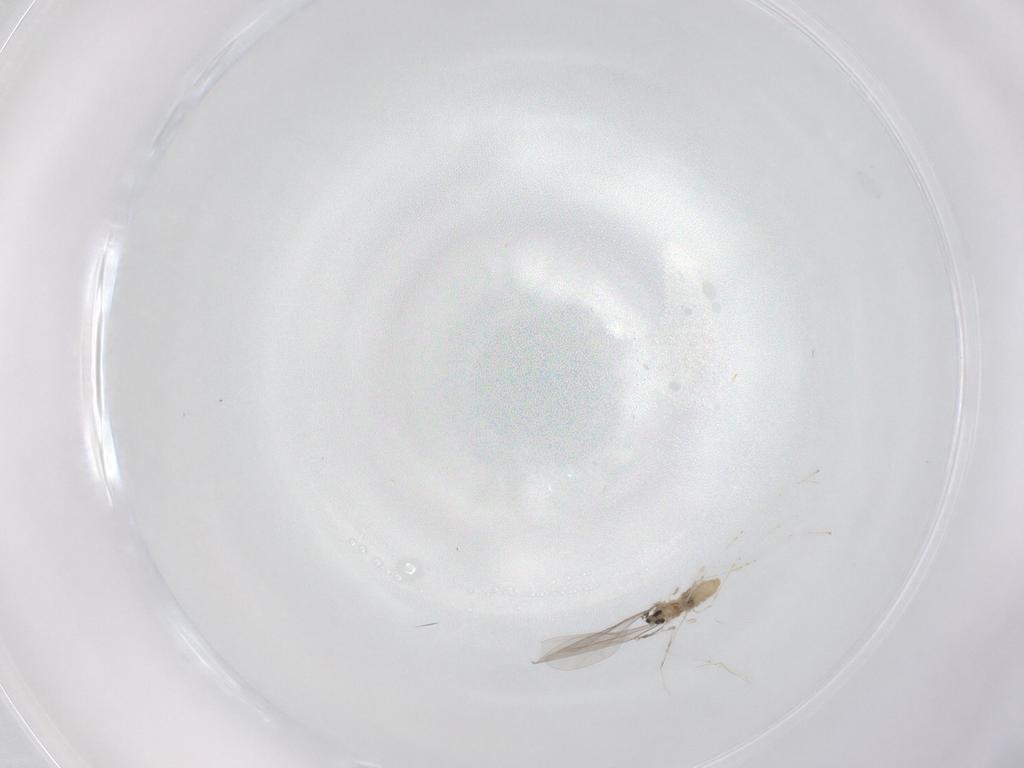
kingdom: Animalia
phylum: Arthropoda
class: Insecta
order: Diptera
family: Cecidomyiidae
